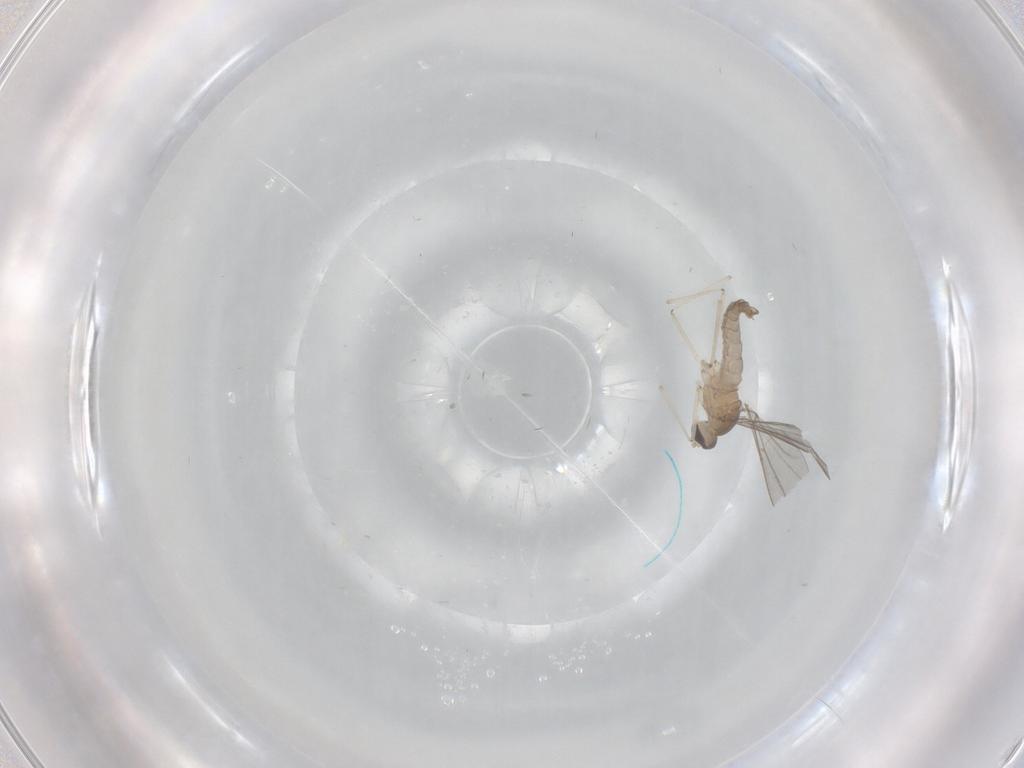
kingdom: Animalia
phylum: Arthropoda
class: Insecta
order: Diptera
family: Cecidomyiidae
